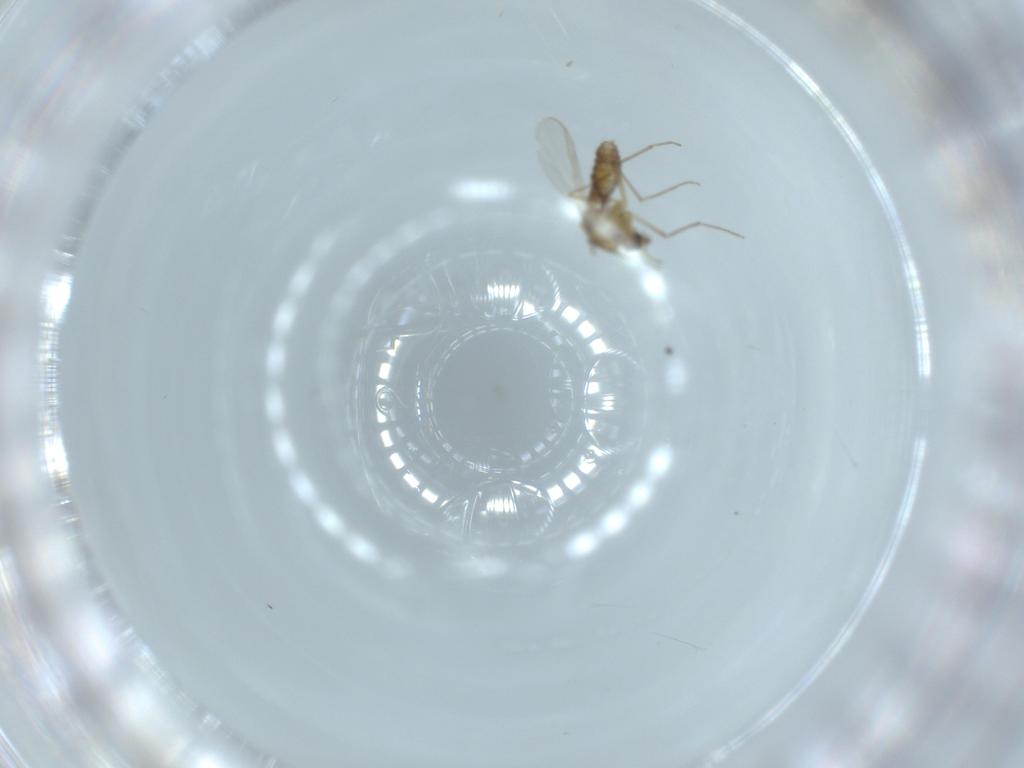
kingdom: Animalia
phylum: Arthropoda
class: Insecta
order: Diptera
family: Chironomidae
